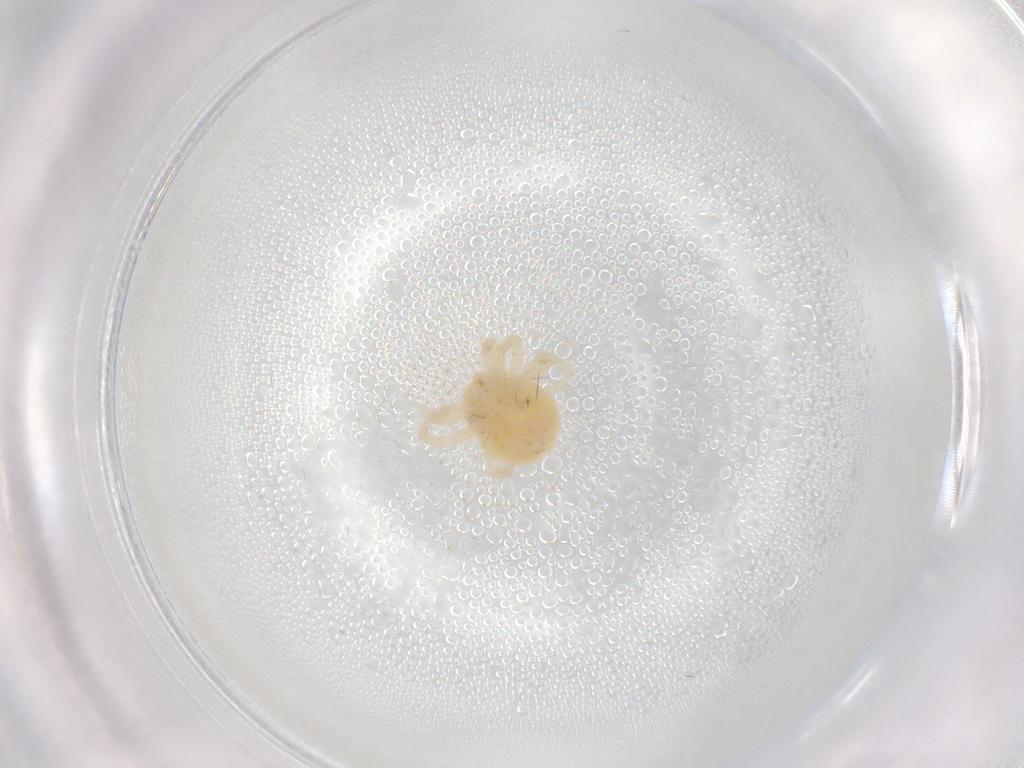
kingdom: Animalia
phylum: Arthropoda
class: Arachnida
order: Trombidiformes
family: Anystidae
